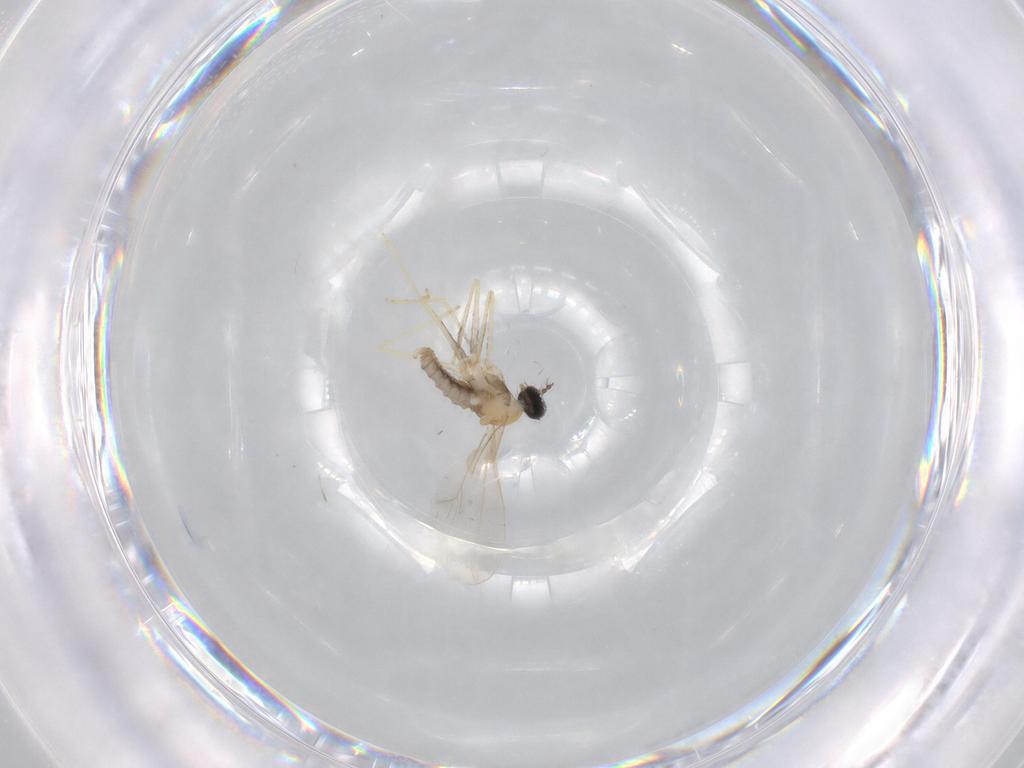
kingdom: Animalia
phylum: Arthropoda
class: Insecta
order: Diptera
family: Cecidomyiidae
